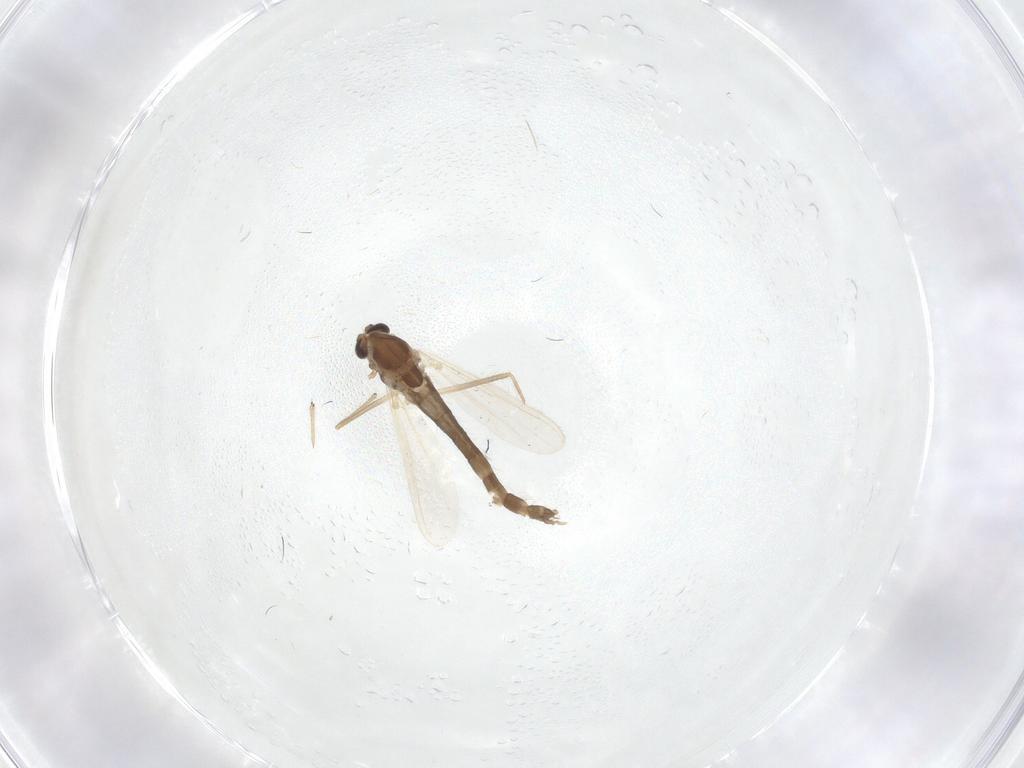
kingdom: Animalia
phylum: Arthropoda
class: Insecta
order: Diptera
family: Chironomidae
